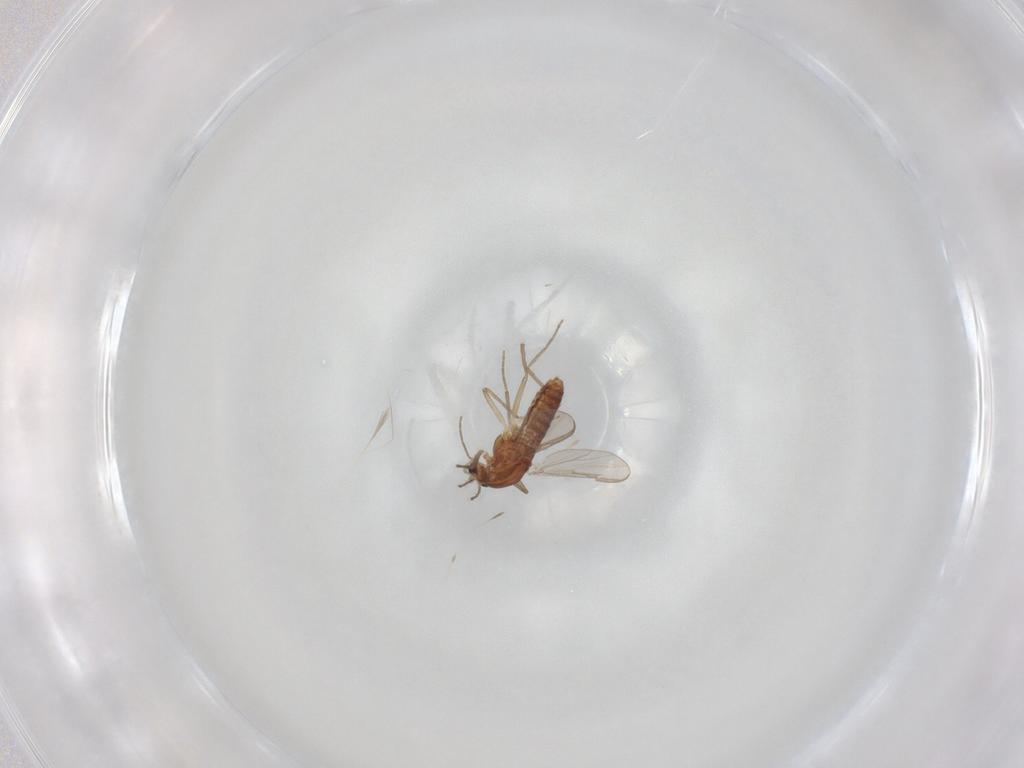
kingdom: Animalia
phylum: Arthropoda
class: Insecta
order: Diptera
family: Chironomidae
